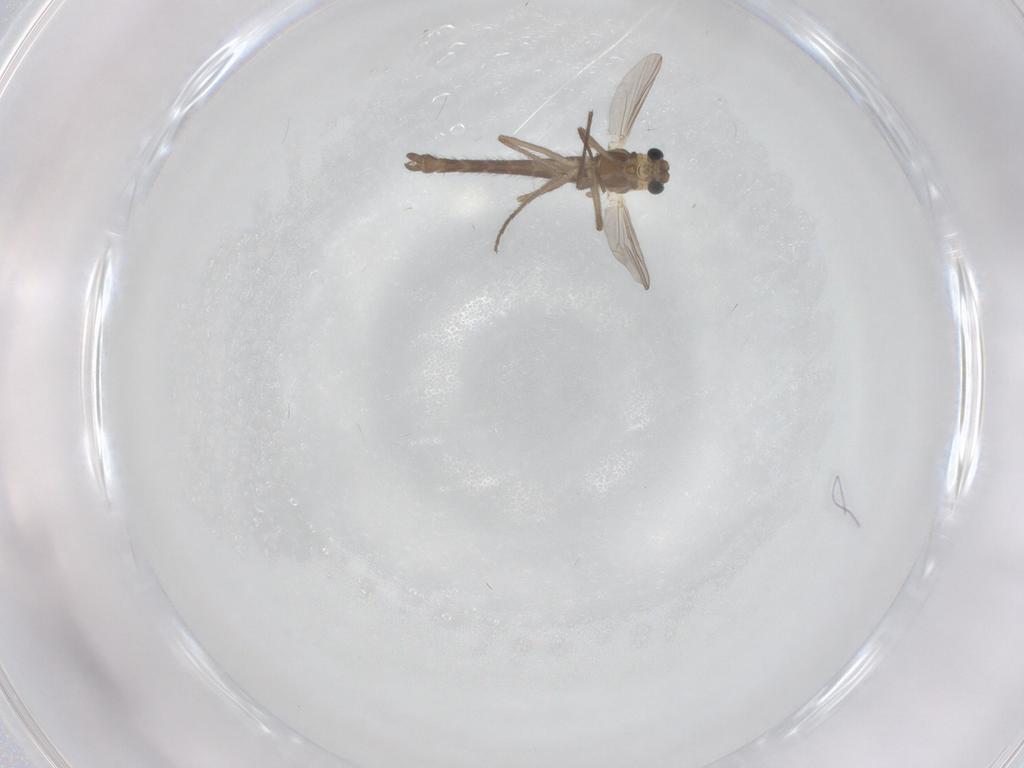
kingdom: Animalia
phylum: Arthropoda
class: Insecta
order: Diptera
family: Chironomidae
